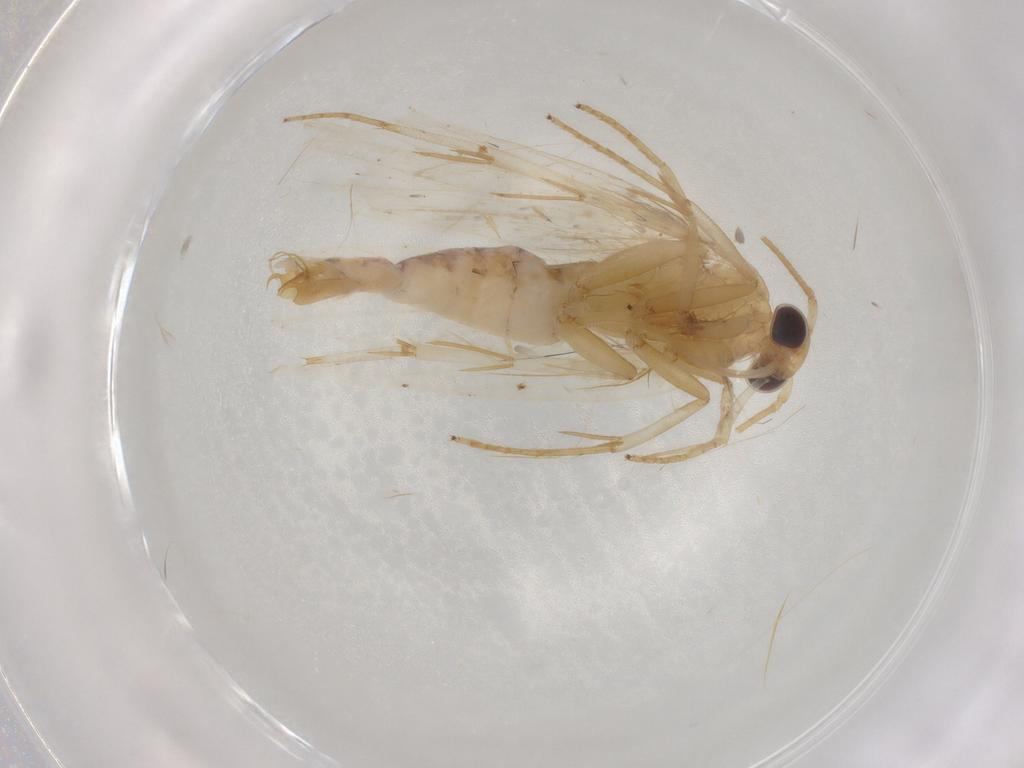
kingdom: Animalia
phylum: Arthropoda
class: Insecta
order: Lepidoptera
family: Depressariidae
